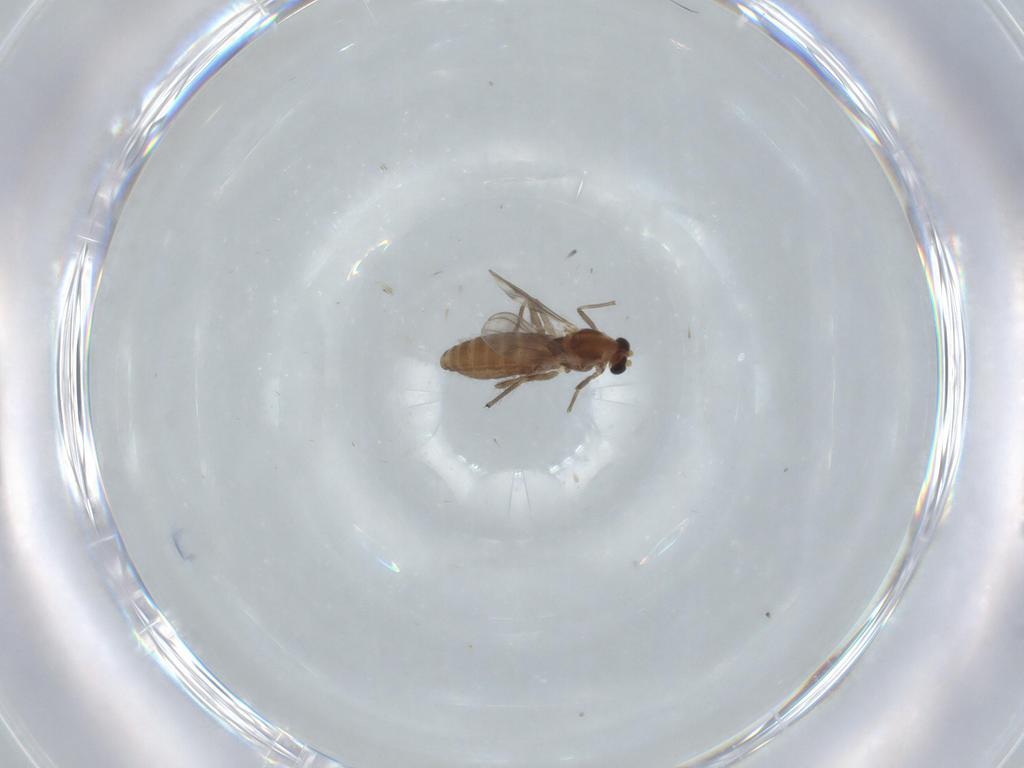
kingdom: Animalia
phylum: Arthropoda
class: Insecta
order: Diptera
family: Chironomidae
